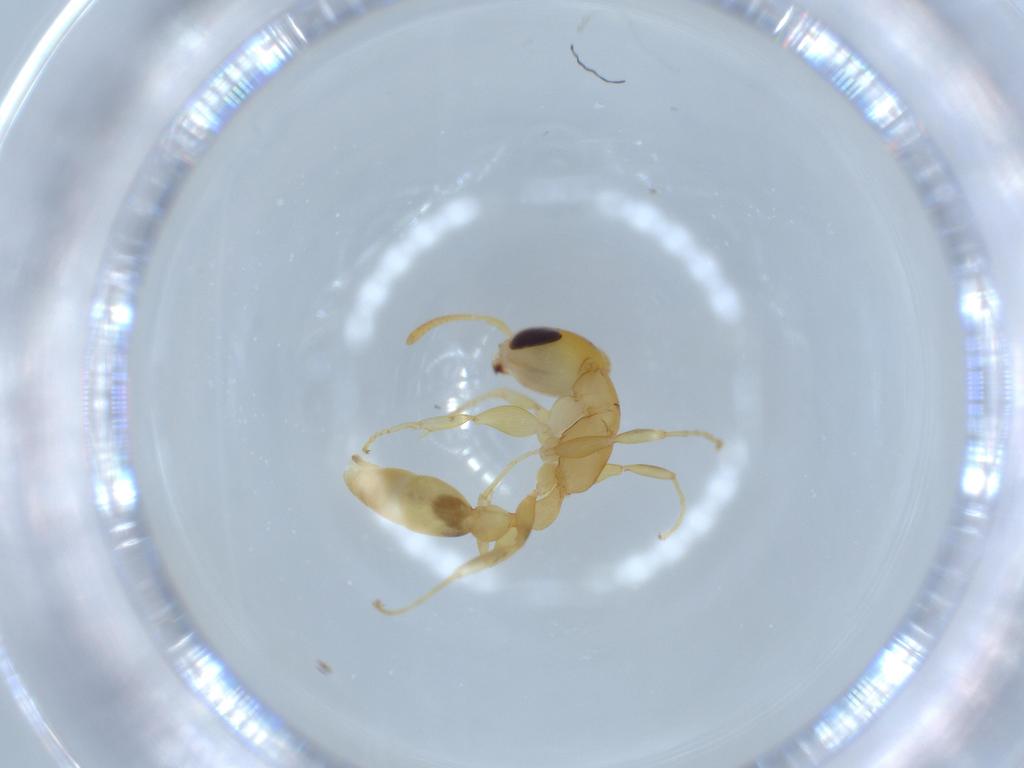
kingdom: Animalia
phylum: Arthropoda
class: Insecta
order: Hymenoptera
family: Formicidae
